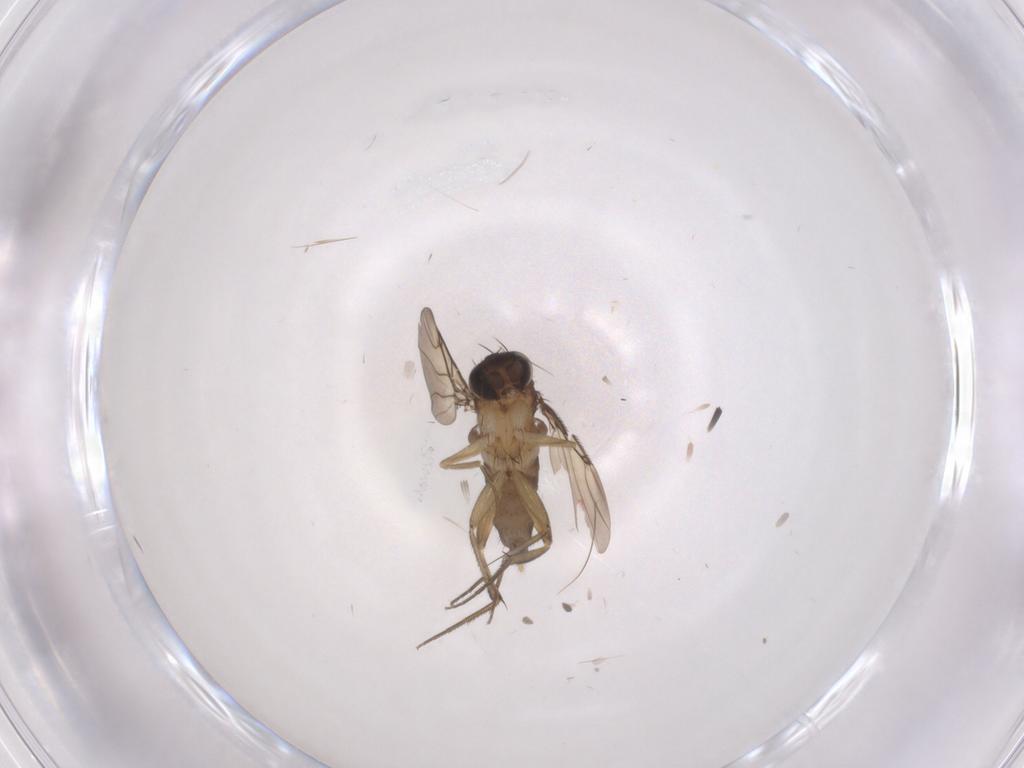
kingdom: Animalia
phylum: Arthropoda
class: Insecta
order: Diptera
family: Phoridae
